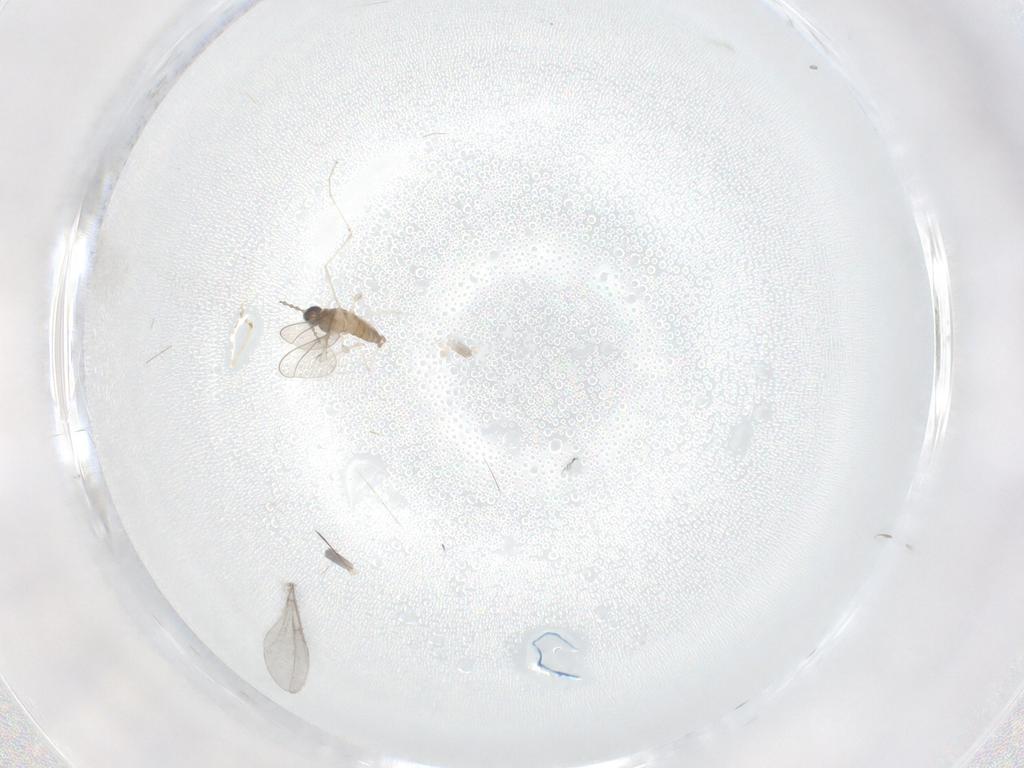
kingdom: Animalia
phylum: Arthropoda
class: Insecta
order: Diptera
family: Cecidomyiidae
